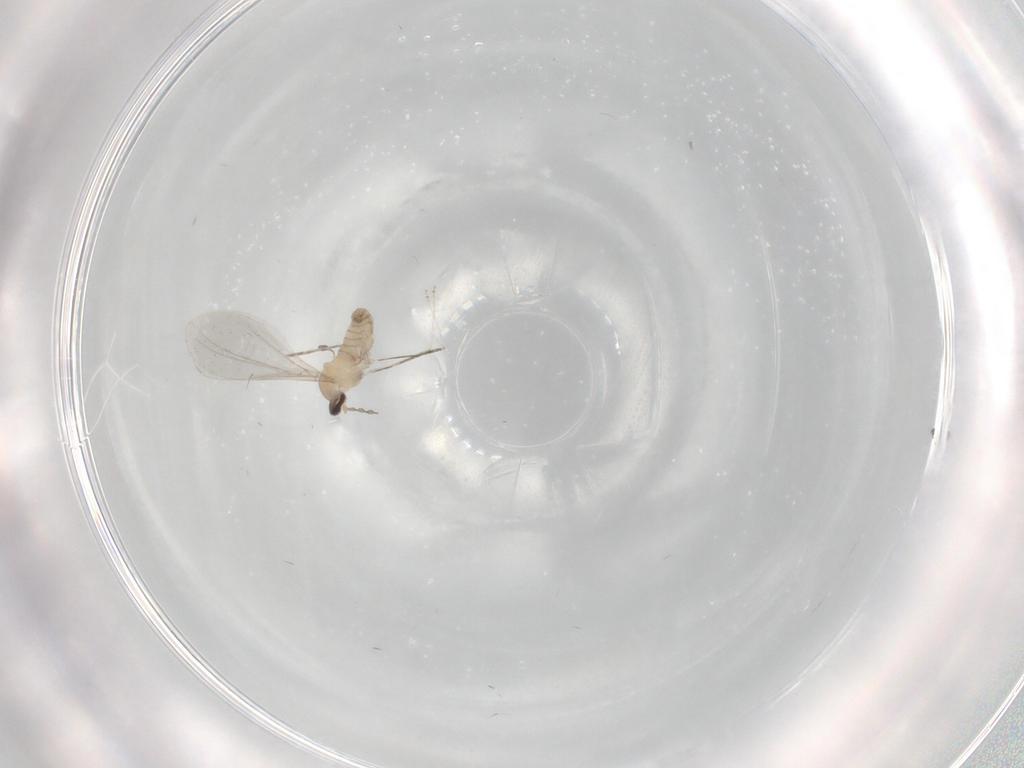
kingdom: Animalia
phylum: Arthropoda
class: Insecta
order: Diptera
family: Cecidomyiidae
